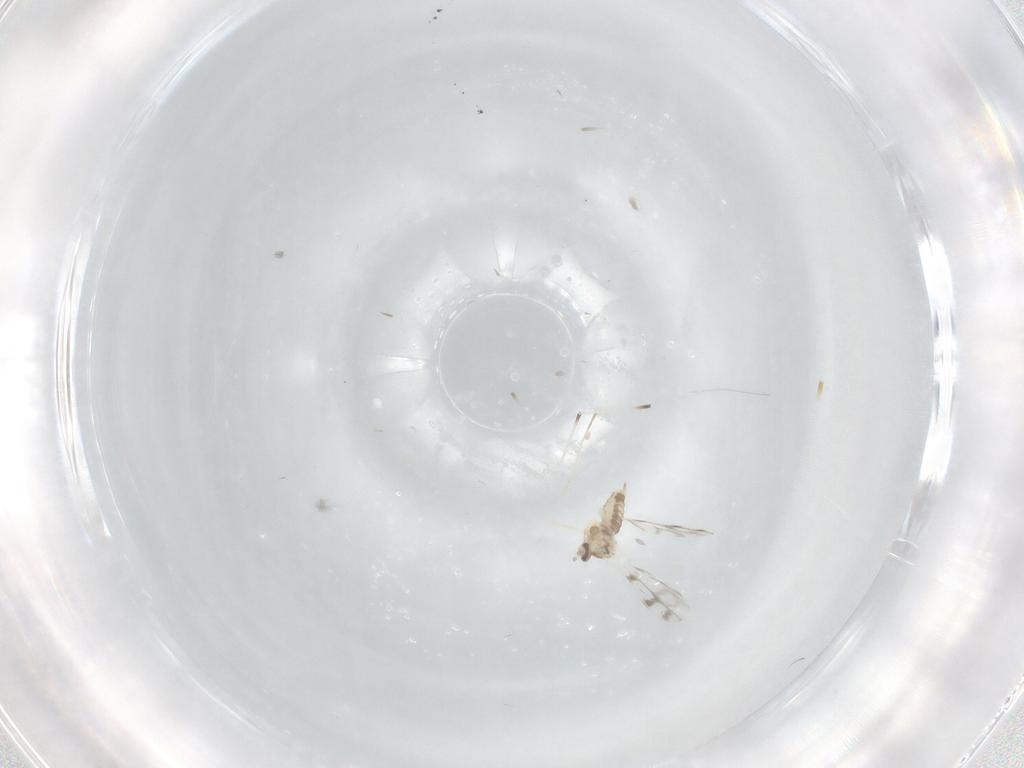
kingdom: Animalia
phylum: Arthropoda
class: Insecta
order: Diptera
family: Cecidomyiidae
